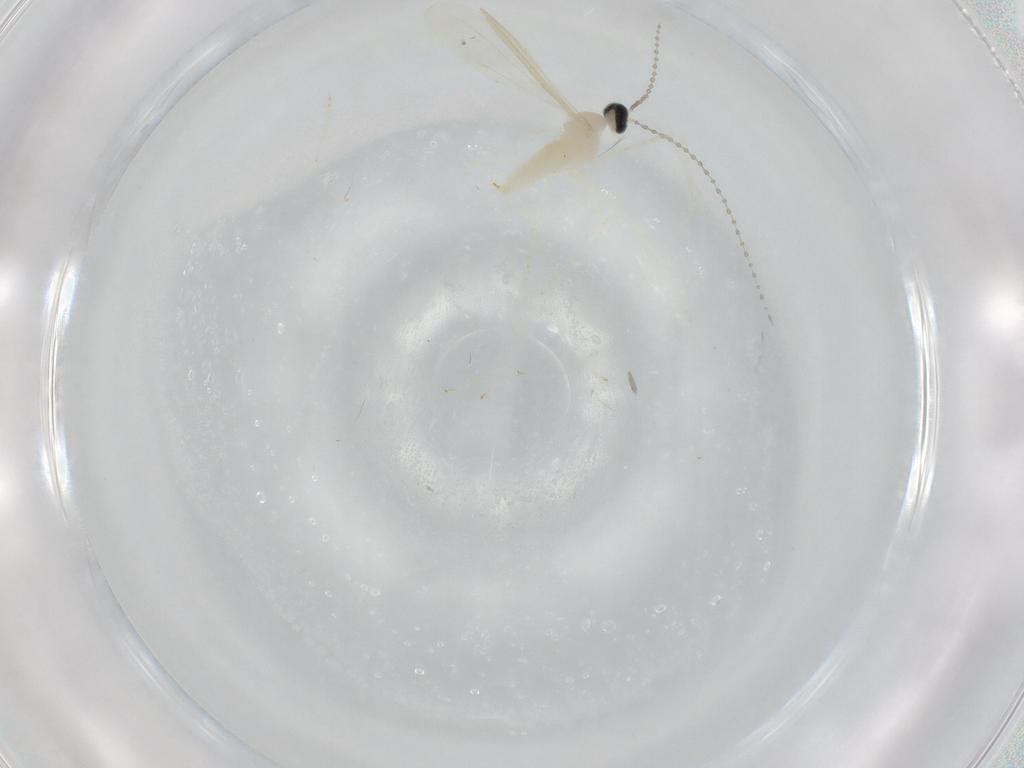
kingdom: Animalia
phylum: Arthropoda
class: Insecta
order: Diptera
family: Cecidomyiidae
